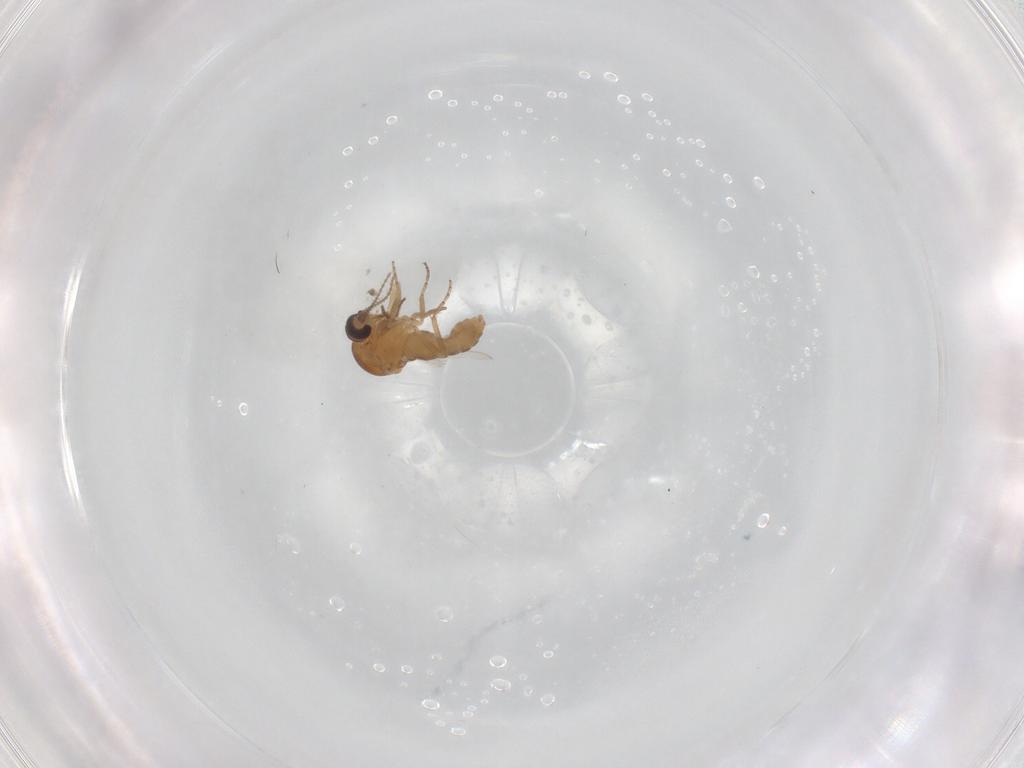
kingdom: Animalia
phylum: Arthropoda
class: Insecta
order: Diptera
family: Ceratopogonidae
